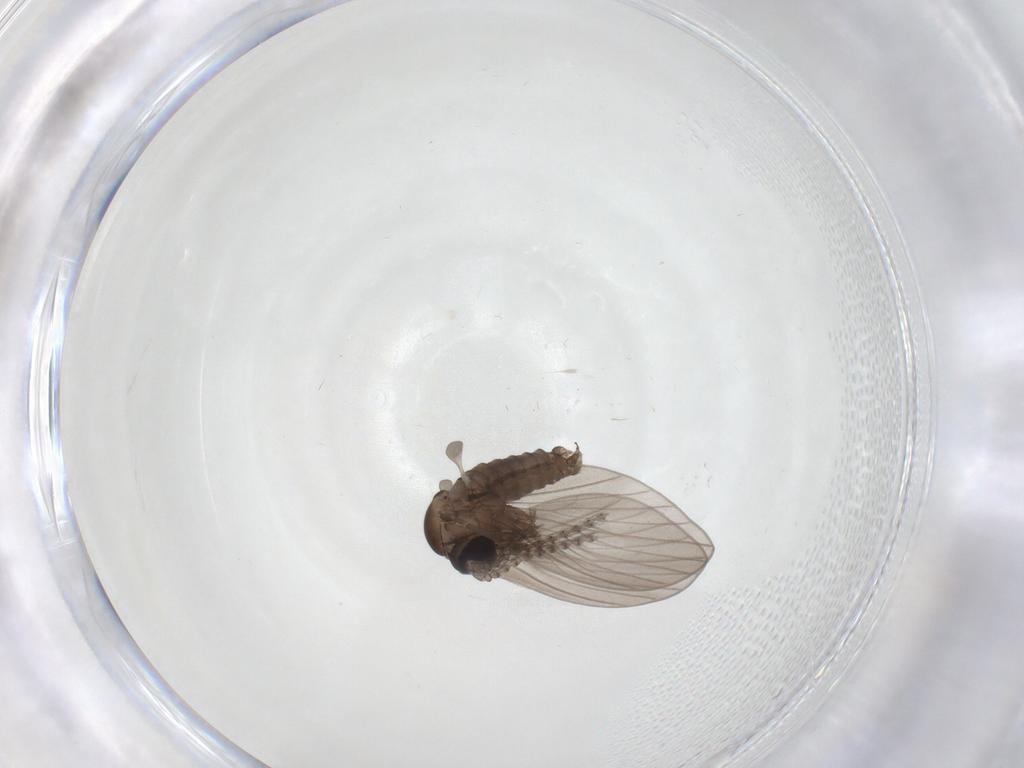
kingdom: Animalia
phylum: Arthropoda
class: Insecta
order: Diptera
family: Psychodidae
